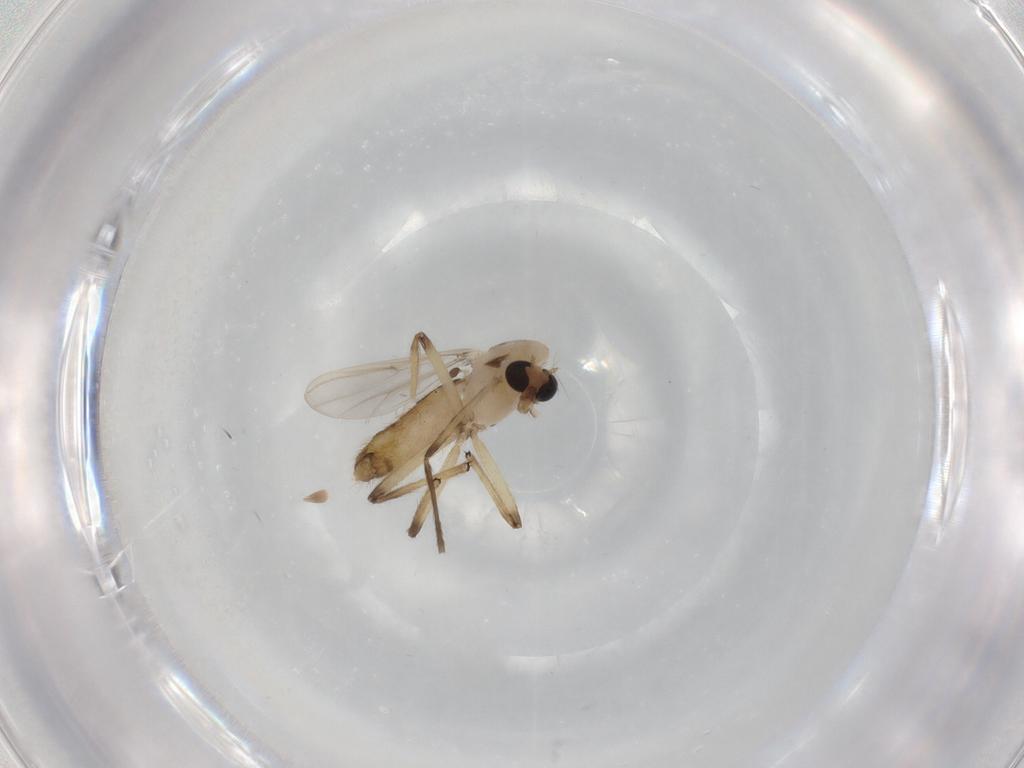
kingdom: Animalia
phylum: Arthropoda
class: Insecta
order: Diptera
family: Chironomidae
